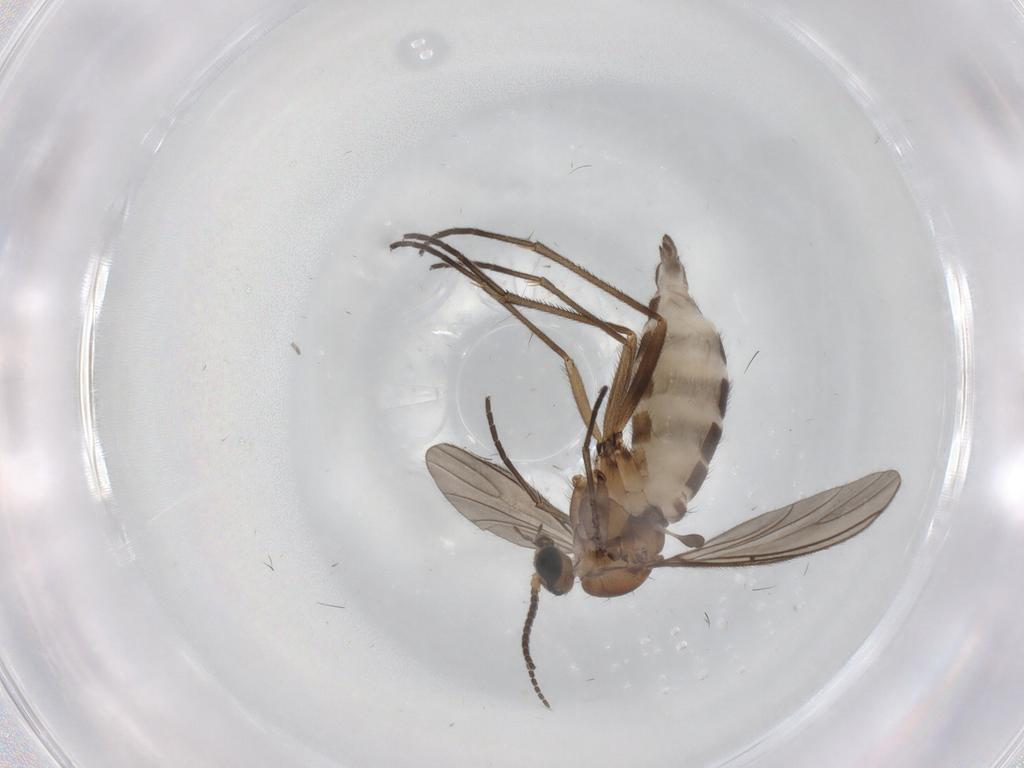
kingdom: Animalia
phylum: Arthropoda
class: Insecta
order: Diptera
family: Sciaridae
